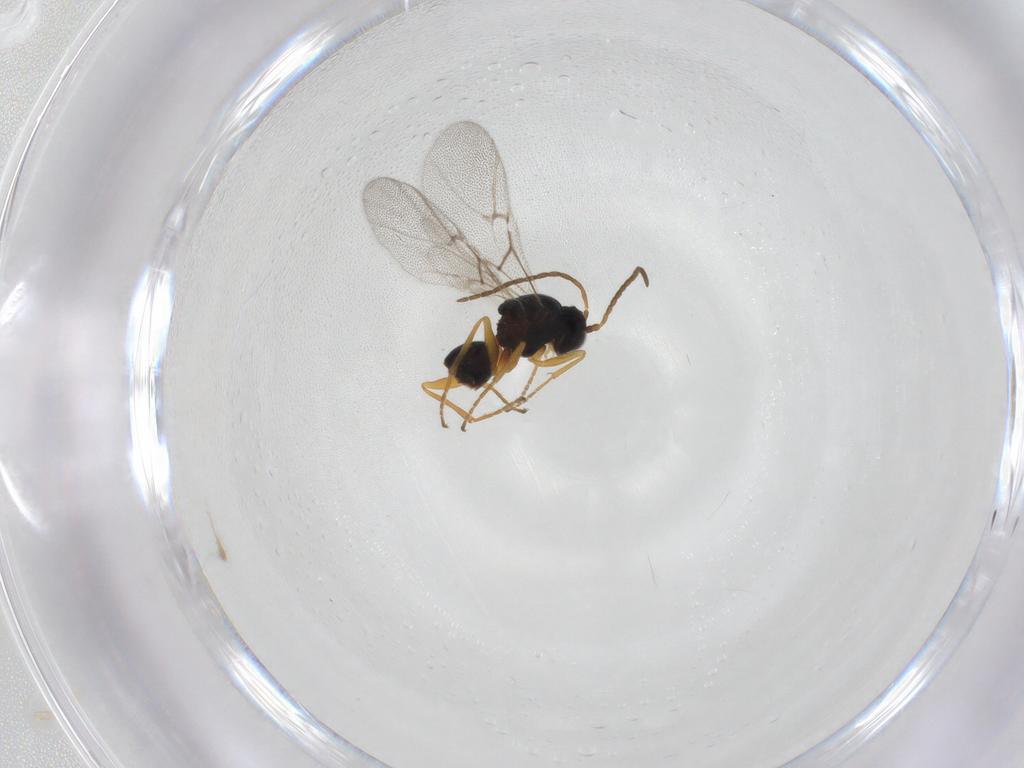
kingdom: Animalia
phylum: Arthropoda
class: Insecta
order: Hymenoptera
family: Cynipidae
